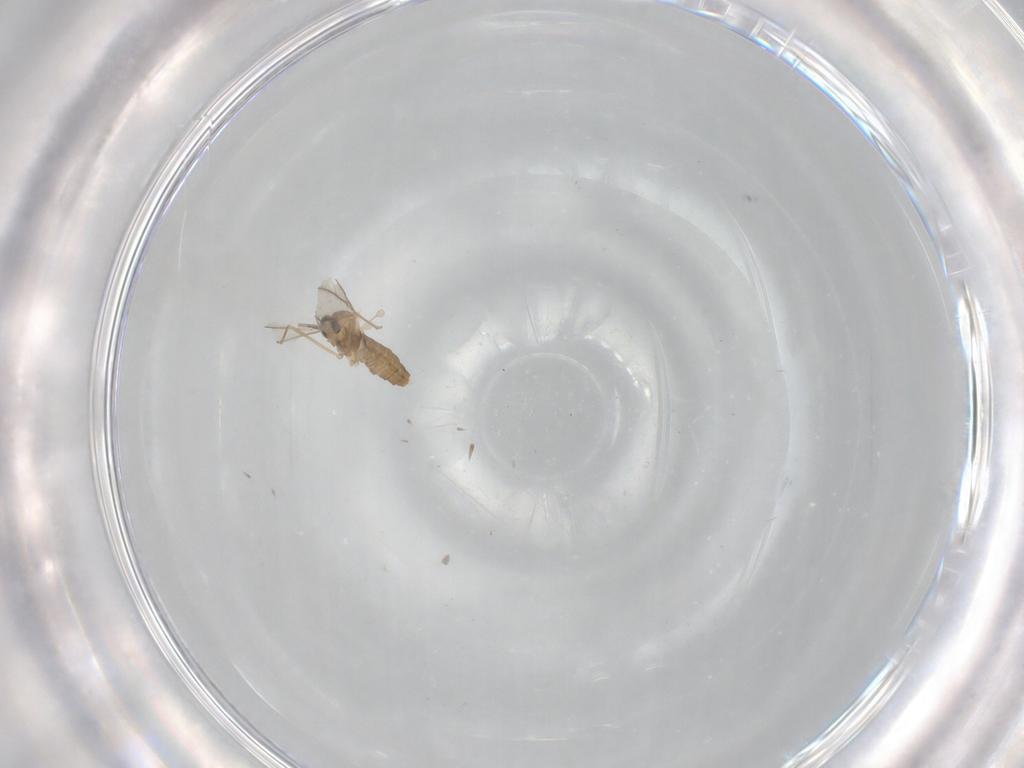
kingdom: Animalia
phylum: Arthropoda
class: Insecta
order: Diptera
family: Cecidomyiidae
